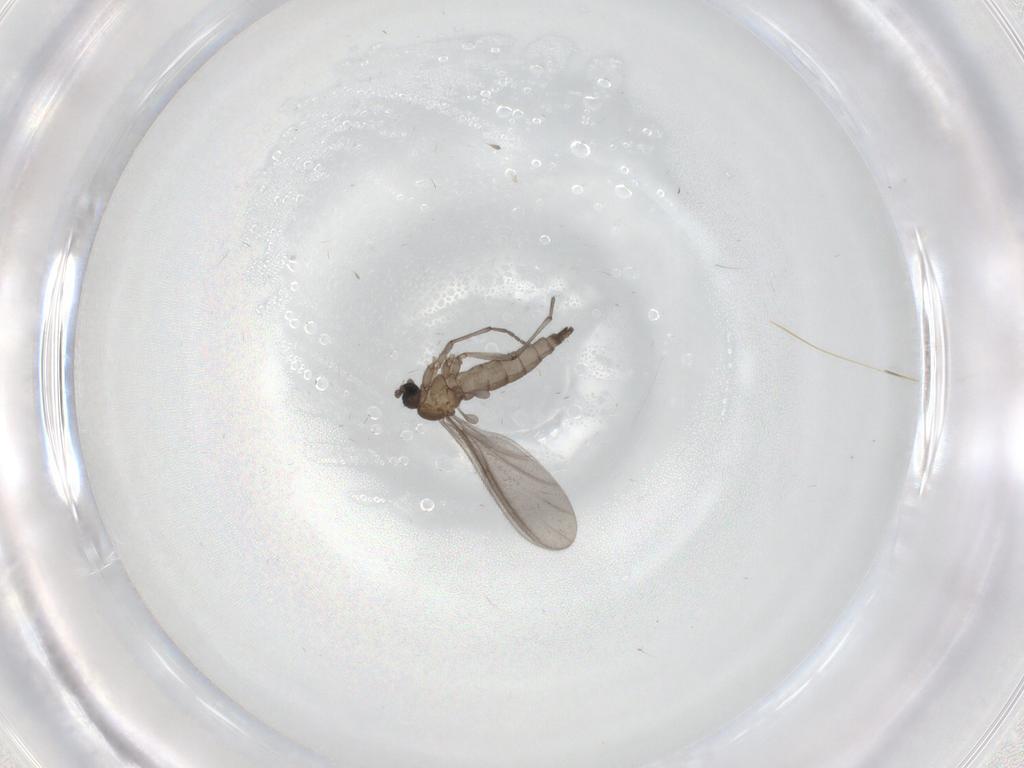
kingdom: Animalia
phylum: Arthropoda
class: Insecta
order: Diptera
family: Sciaridae
